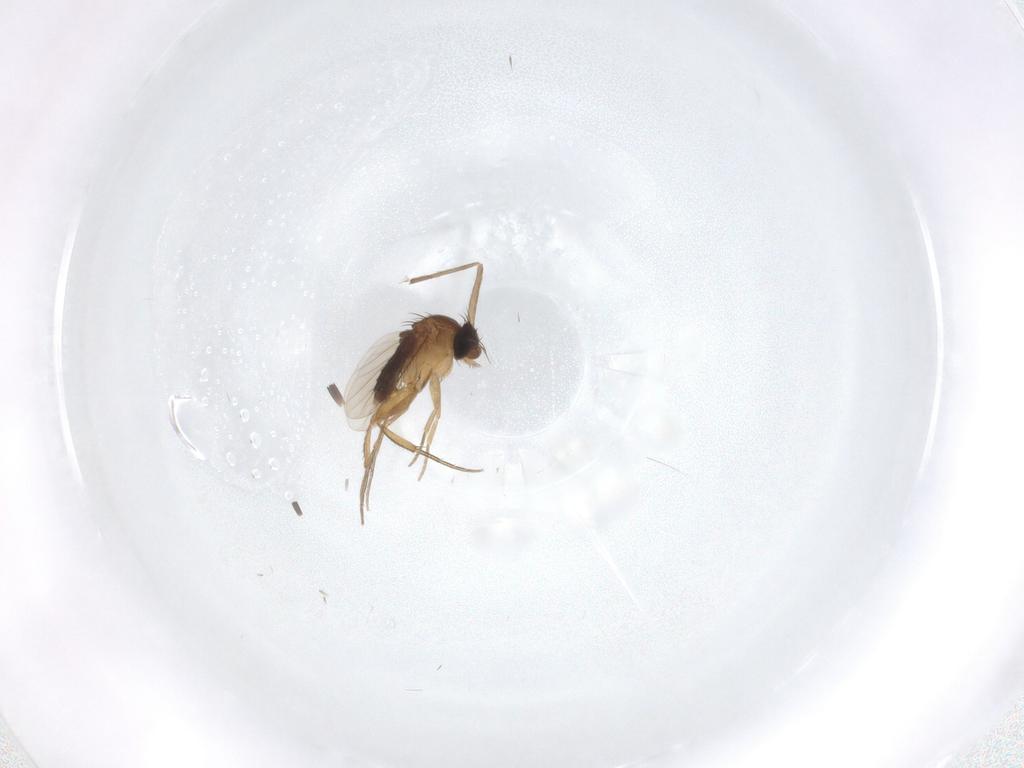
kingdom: Animalia
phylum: Arthropoda
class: Insecta
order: Diptera
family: Phoridae
